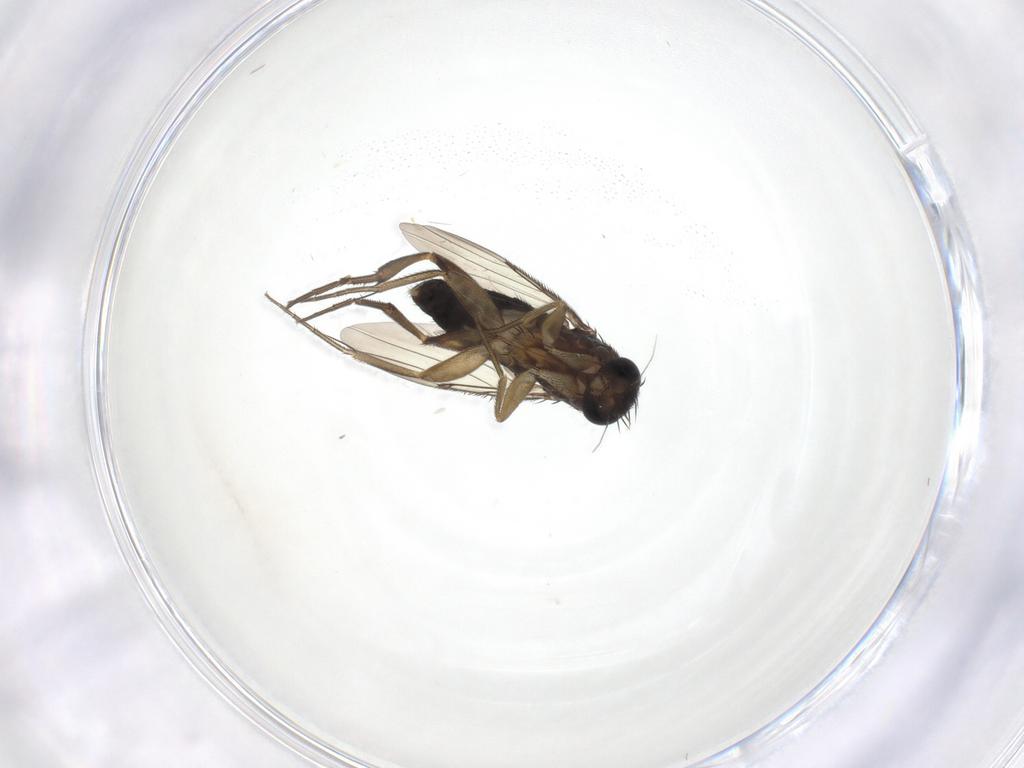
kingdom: Animalia
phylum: Arthropoda
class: Insecta
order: Diptera
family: Phoridae
